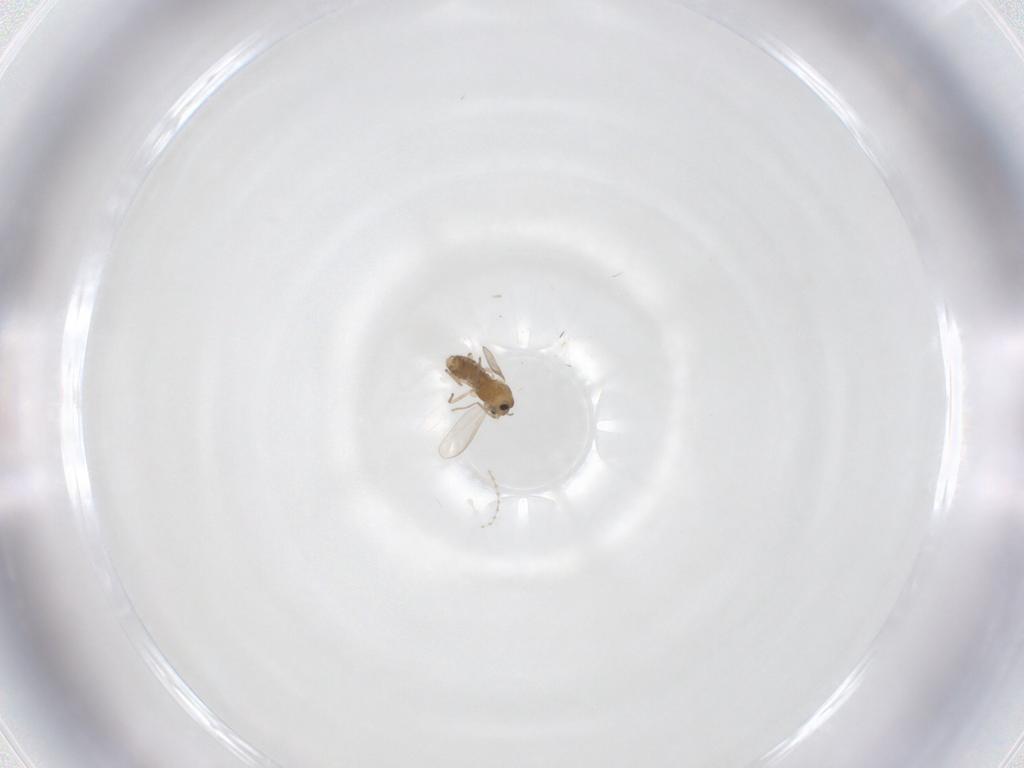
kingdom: Animalia
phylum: Arthropoda
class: Insecta
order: Diptera
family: Chironomidae
